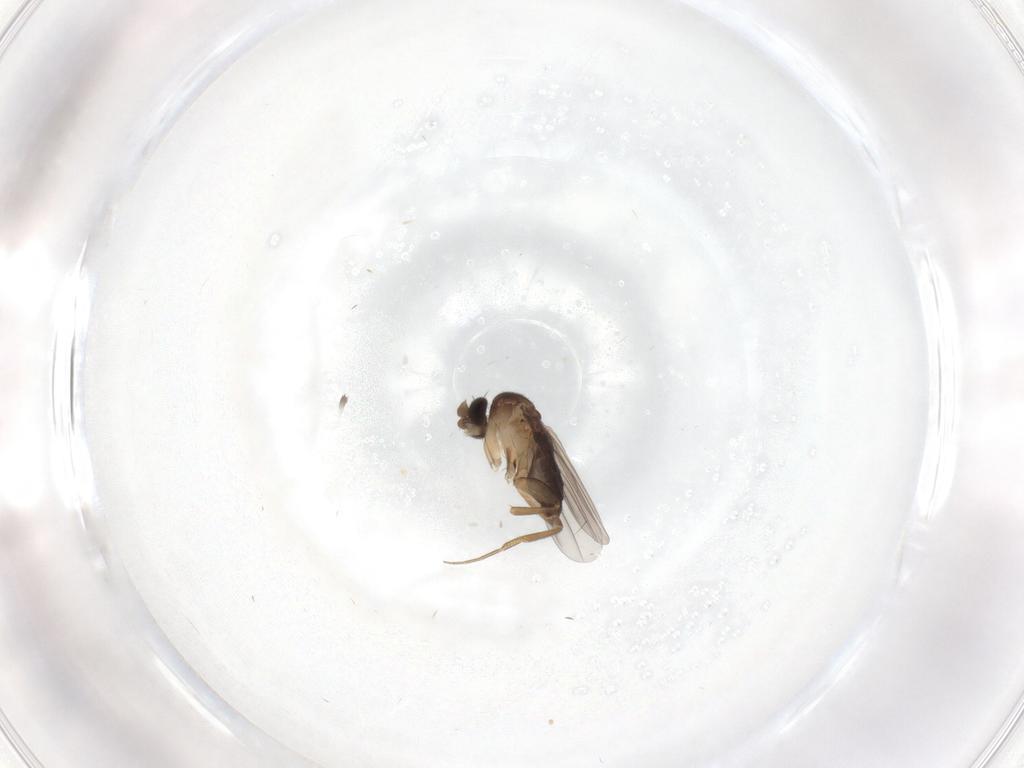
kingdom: Animalia
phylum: Arthropoda
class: Insecta
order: Diptera
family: Phoridae
